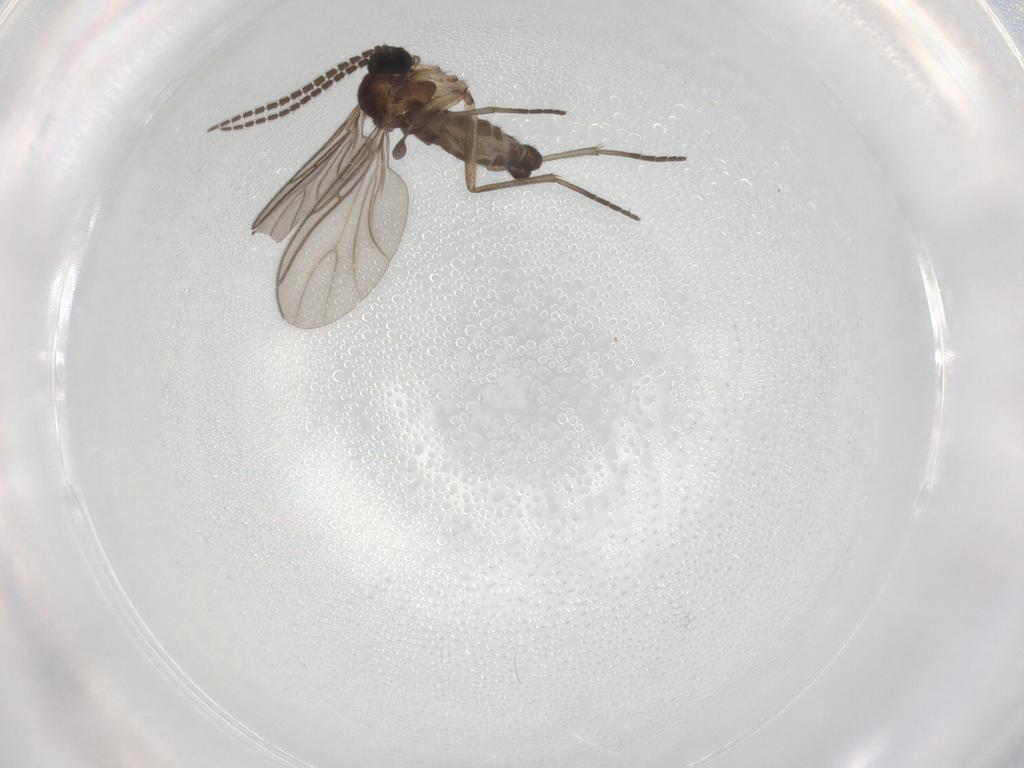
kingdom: Animalia
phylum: Arthropoda
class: Insecta
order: Diptera
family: Sciaridae
